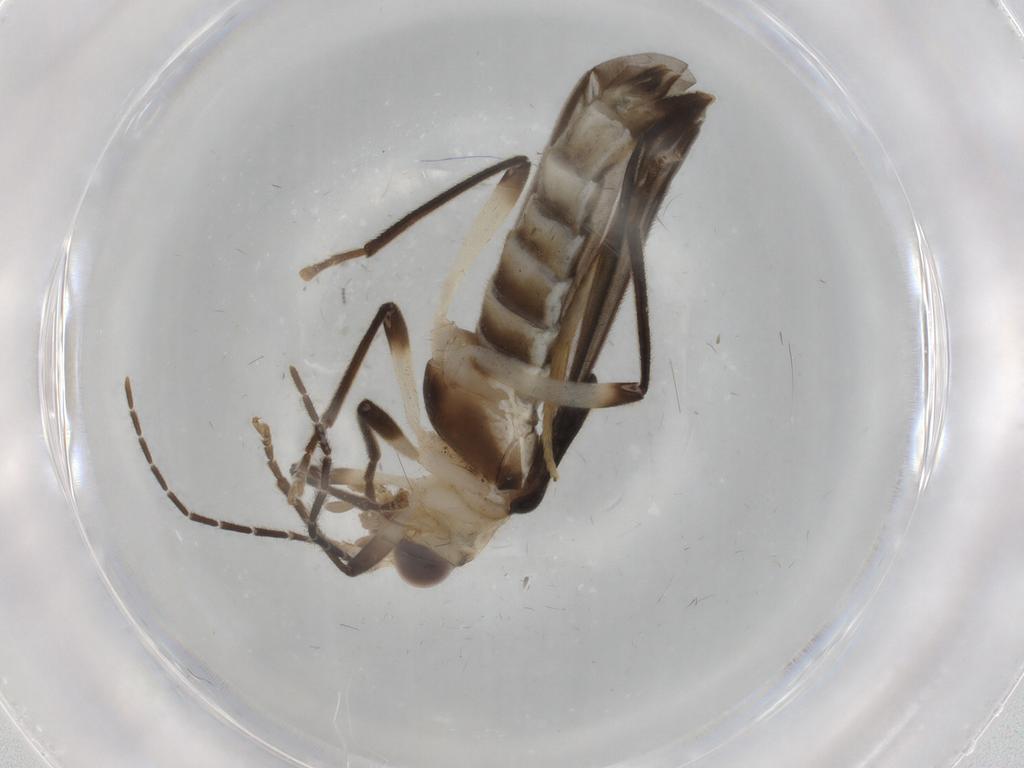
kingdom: Animalia
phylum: Arthropoda
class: Insecta
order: Coleoptera
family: Cantharidae
